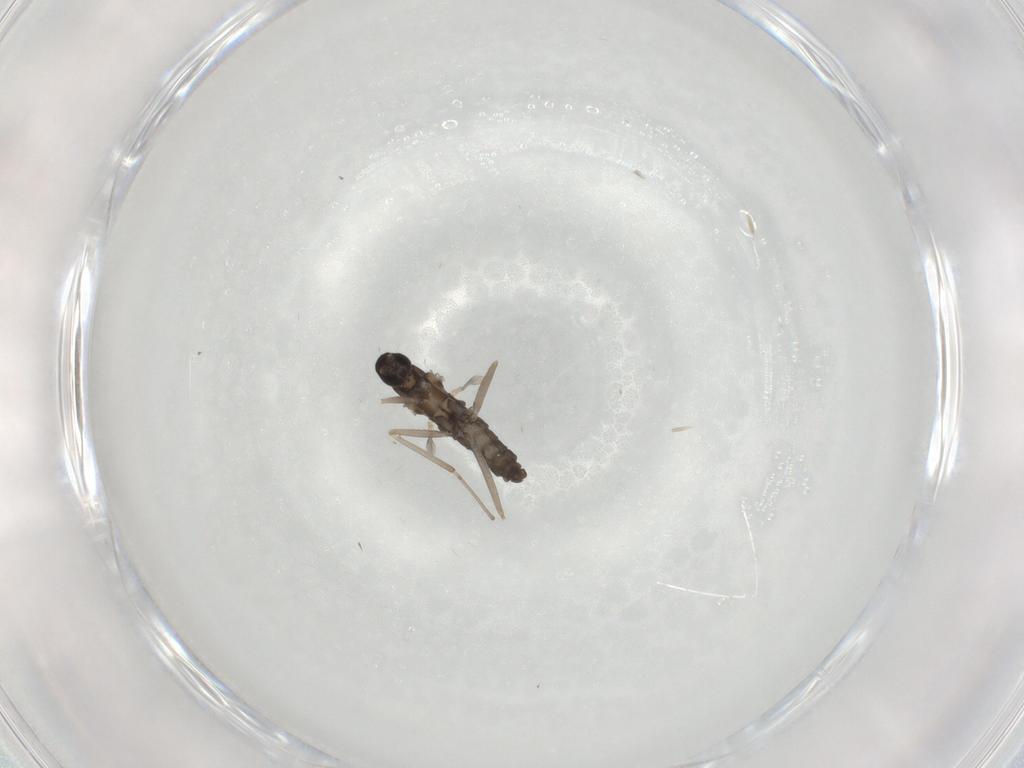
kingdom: Animalia
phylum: Arthropoda
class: Insecta
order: Diptera
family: Cecidomyiidae
